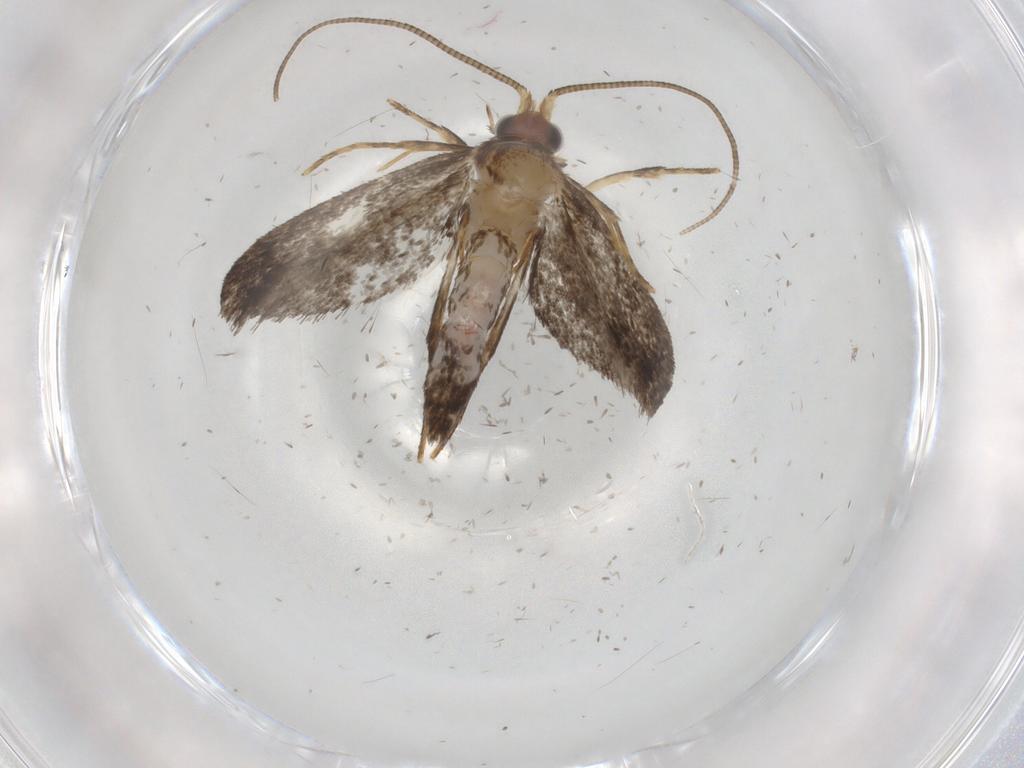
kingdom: Animalia
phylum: Arthropoda
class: Insecta
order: Lepidoptera
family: Nepticulidae
